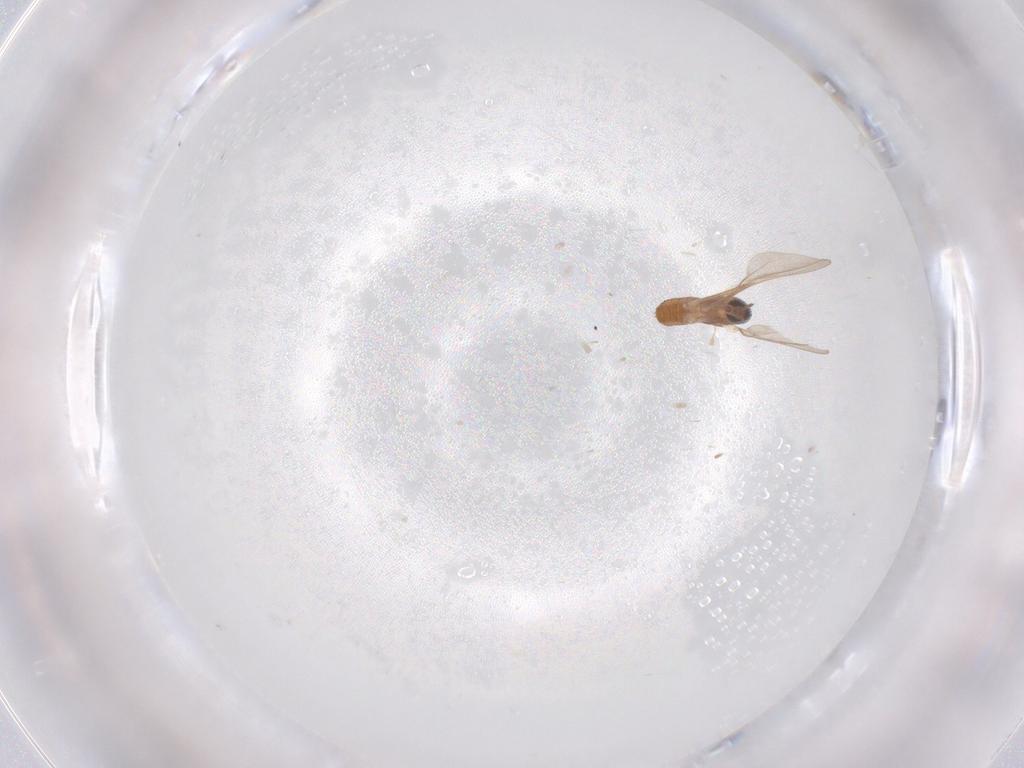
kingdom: Animalia
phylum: Arthropoda
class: Insecta
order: Diptera
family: Cecidomyiidae
